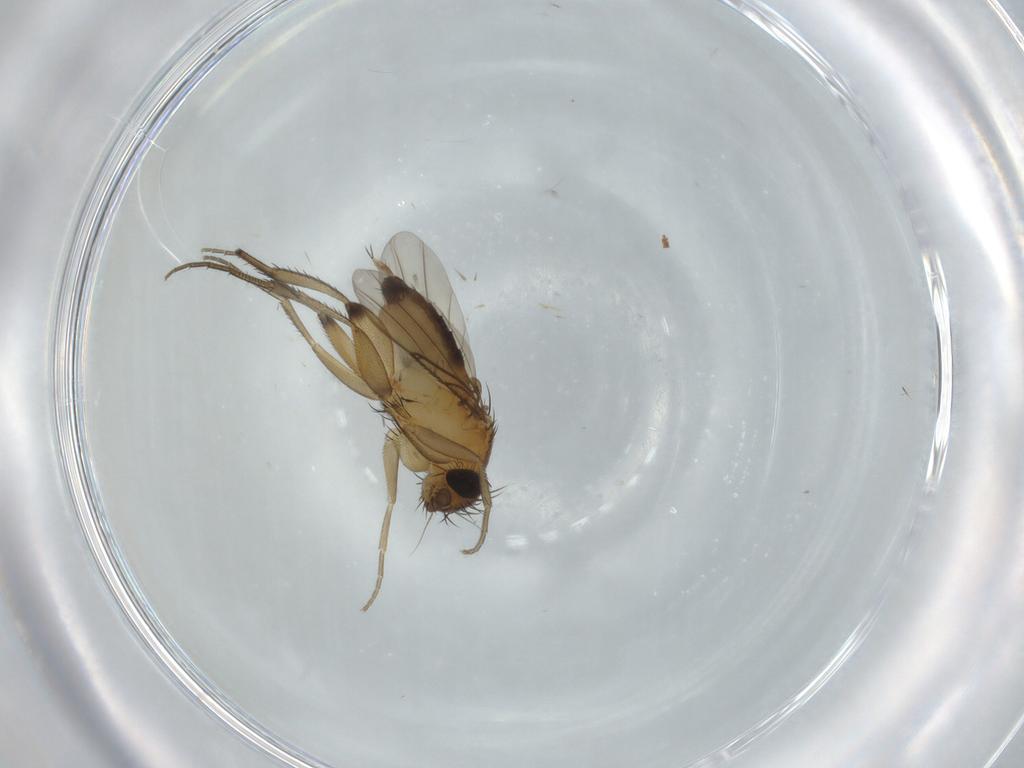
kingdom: Animalia
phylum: Arthropoda
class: Insecta
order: Diptera
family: Phoridae
